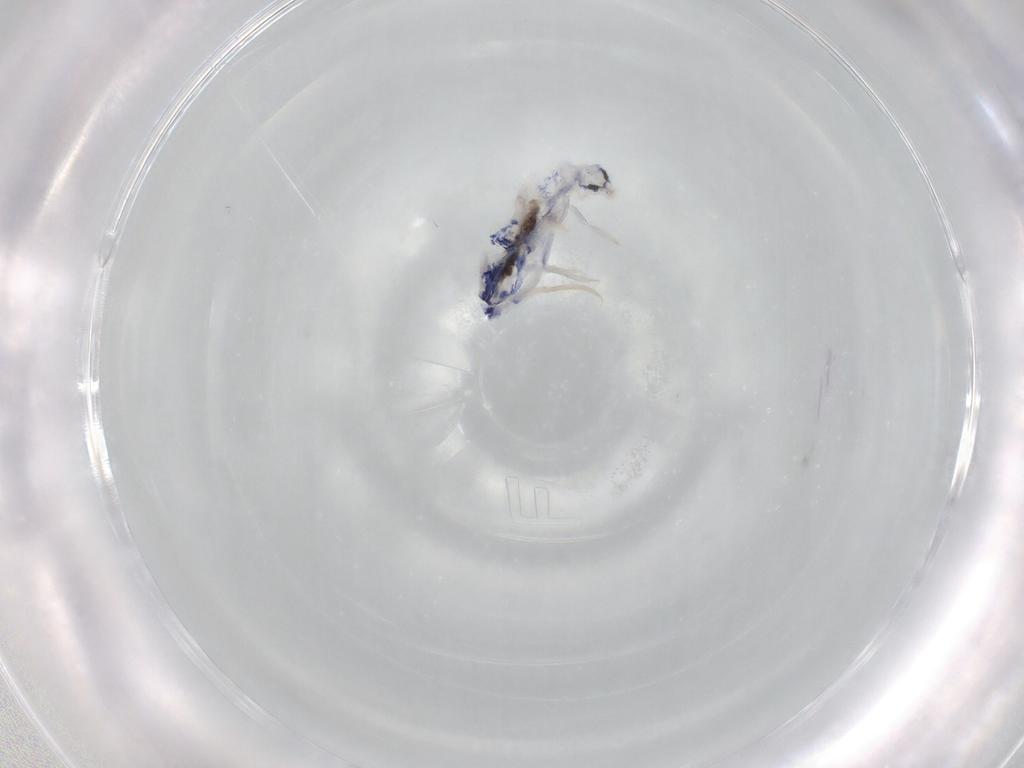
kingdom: Animalia
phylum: Arthropoda
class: Collembola
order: Entomobryomorpha
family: Entomobryidae
